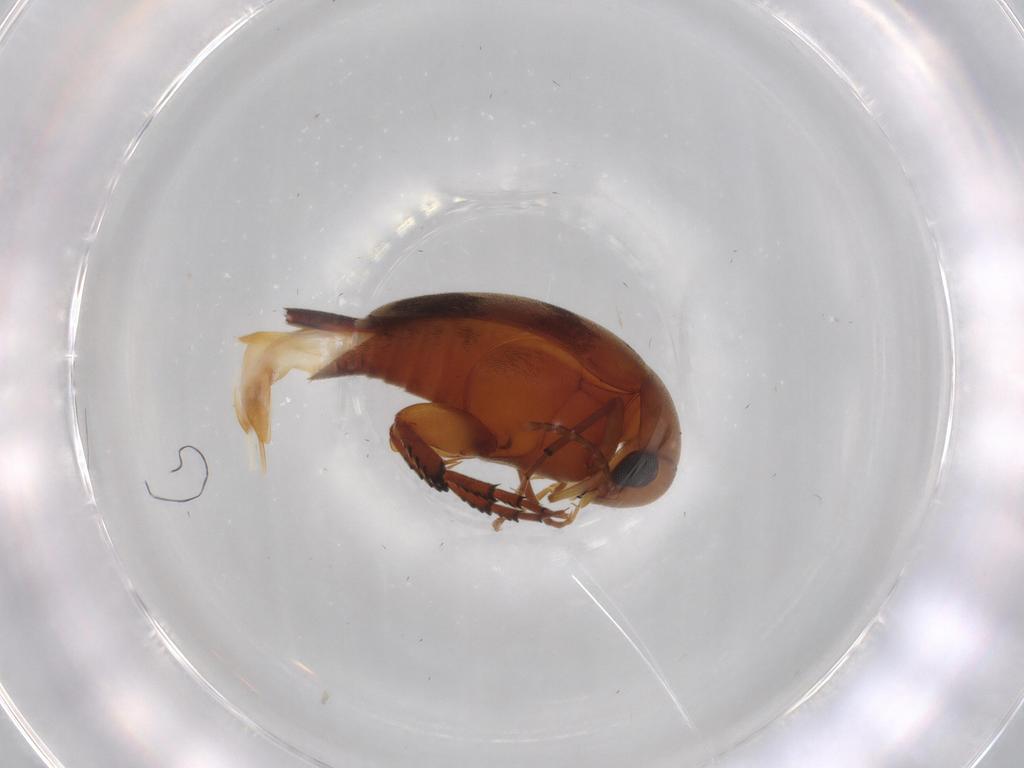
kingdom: Animalia
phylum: Arthropoda
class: Insecta
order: Coleoptera
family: Mordellidae
